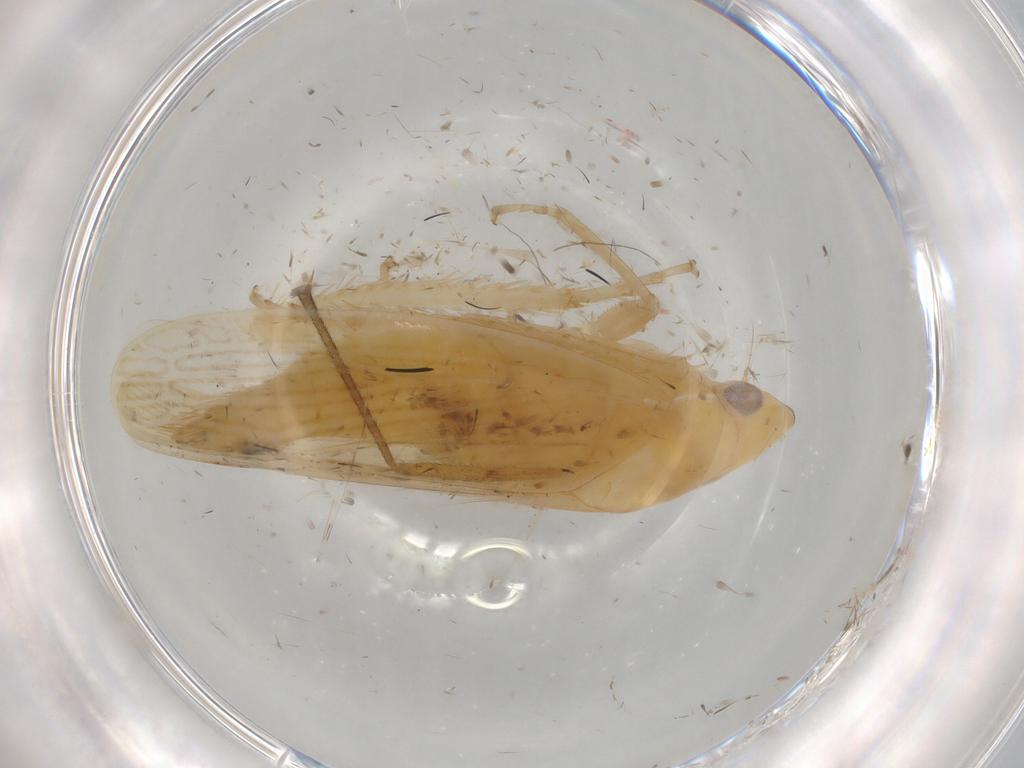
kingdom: Animalia
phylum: Arthropoda
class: Insecta
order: Hemiptera
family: Cicadellidae
